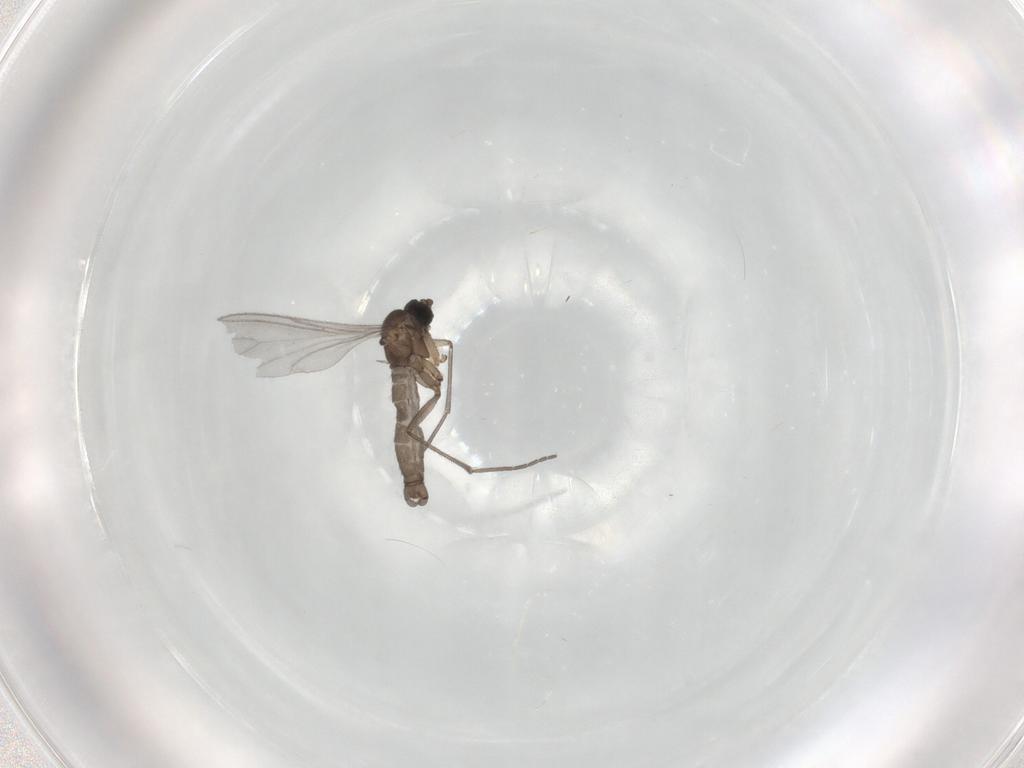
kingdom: Animalia
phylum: Arthropoda
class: Insecta
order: Diptera
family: Sciaridae
